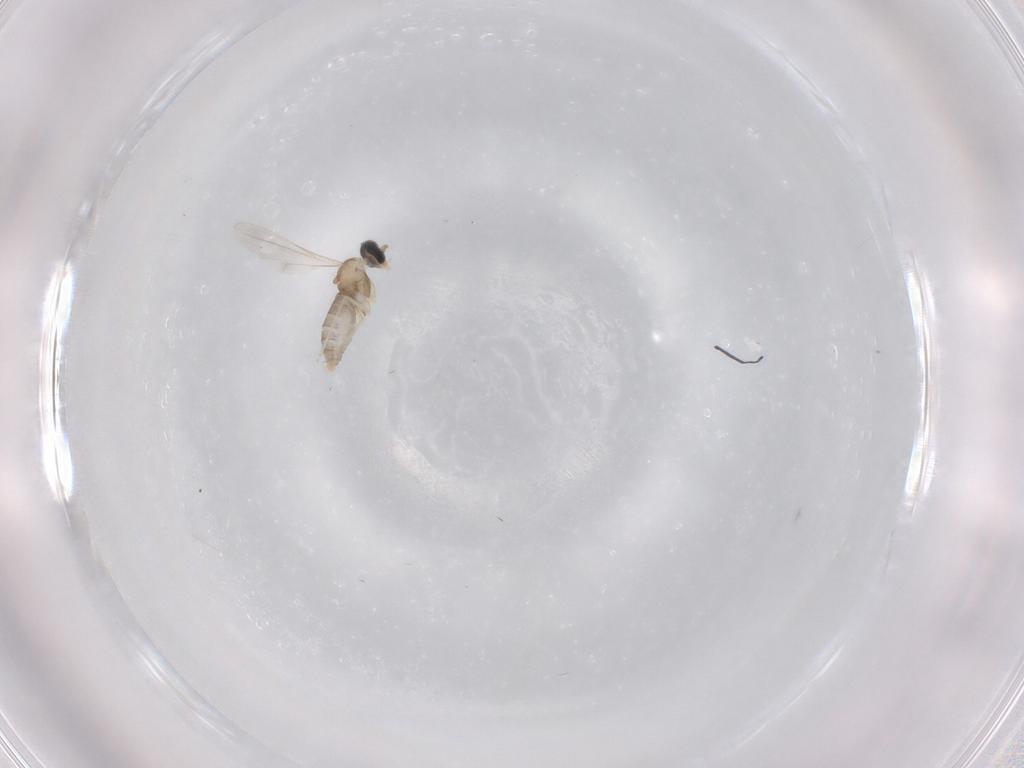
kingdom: Animalia
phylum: Arthropoda
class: Insecta
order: Diptera
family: Cecidomyiidae
